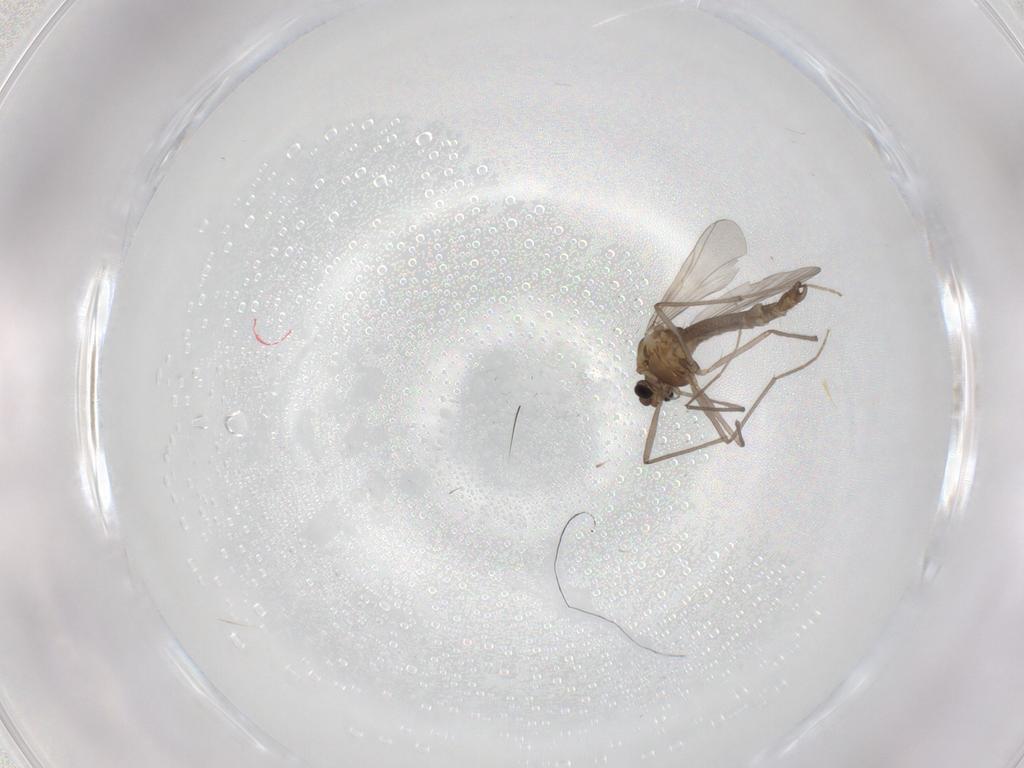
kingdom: Animalia
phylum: Arthropoda
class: Insecta
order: Diptera
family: Chironomidae
